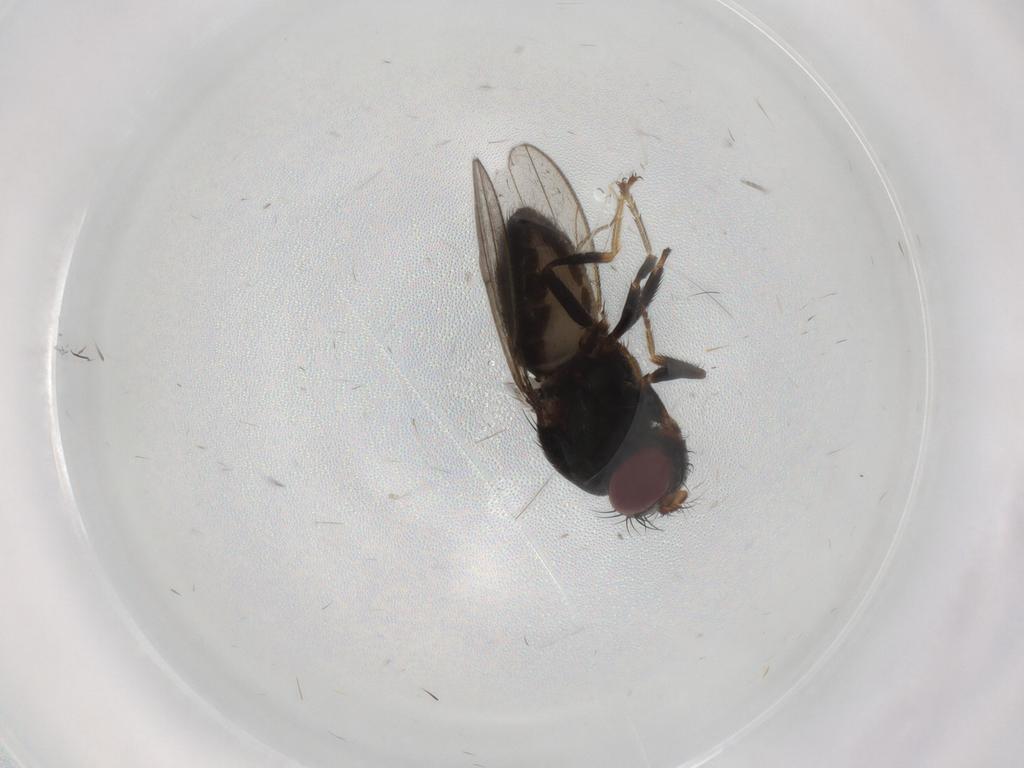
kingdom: Animalia
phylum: Arthropoda
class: Insecta
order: Diptera
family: Ephydridae
